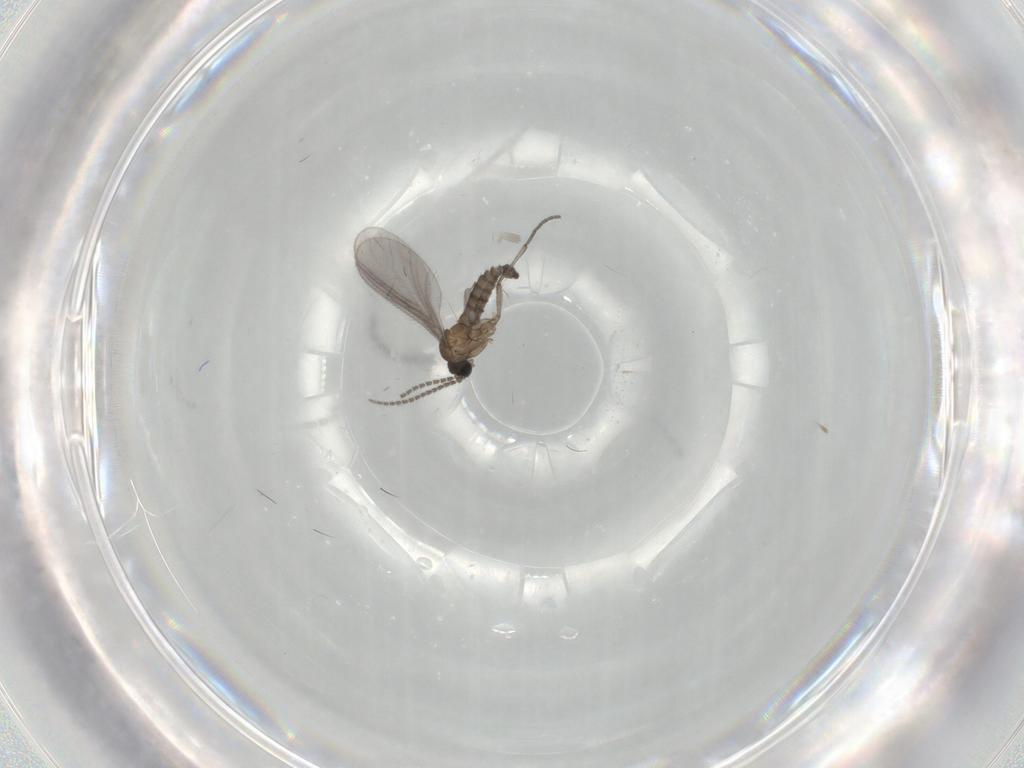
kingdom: Animalia
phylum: Arthropoda
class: Insecta
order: Diptera
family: Sciaridae
